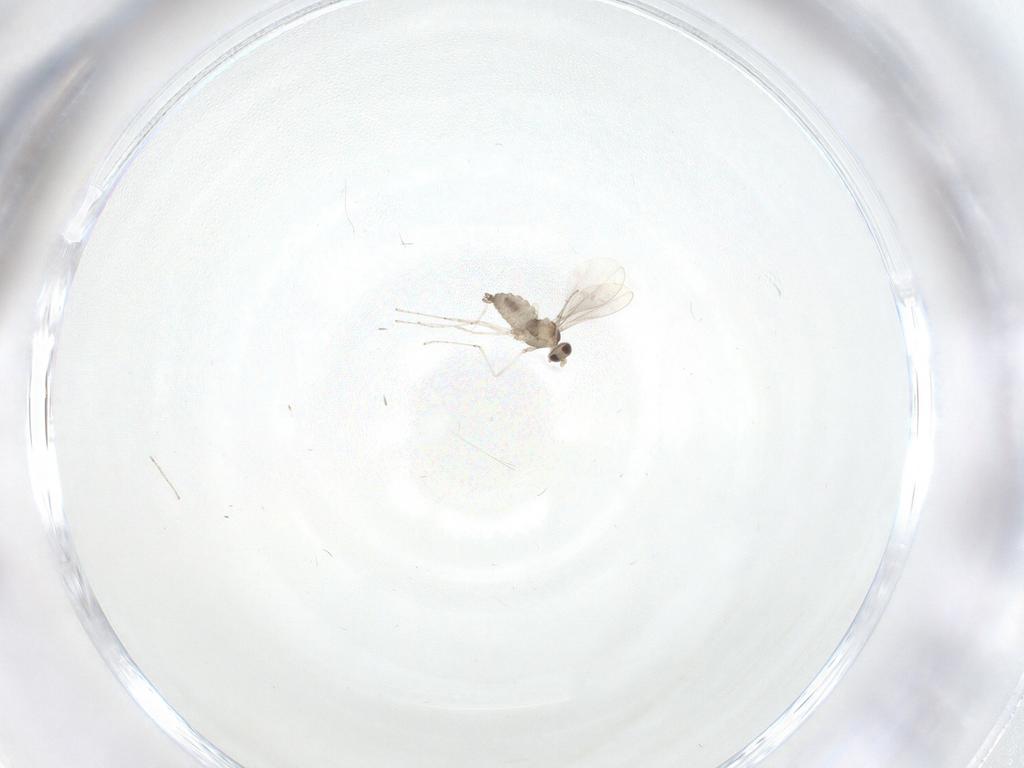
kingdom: Animalia
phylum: Arthropoda
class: Insecta
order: Diptera
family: Cecidomyiidae
